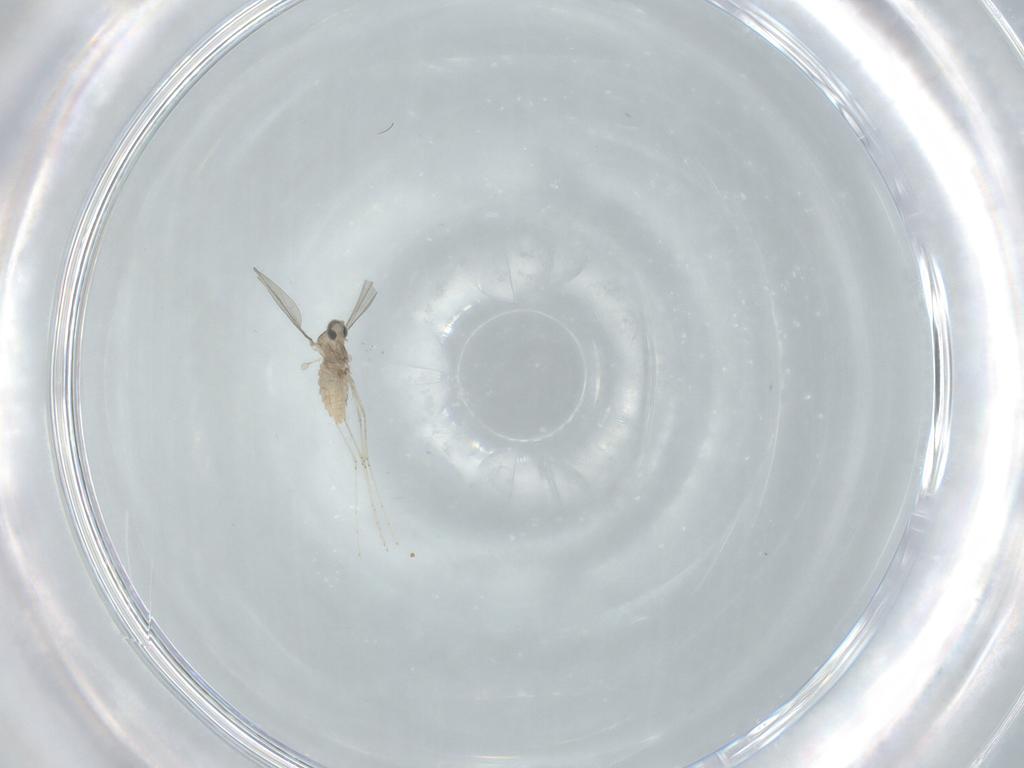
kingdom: Animalia
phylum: Arthropoda
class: Insecta
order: Diptera
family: Cecidomyiidae
